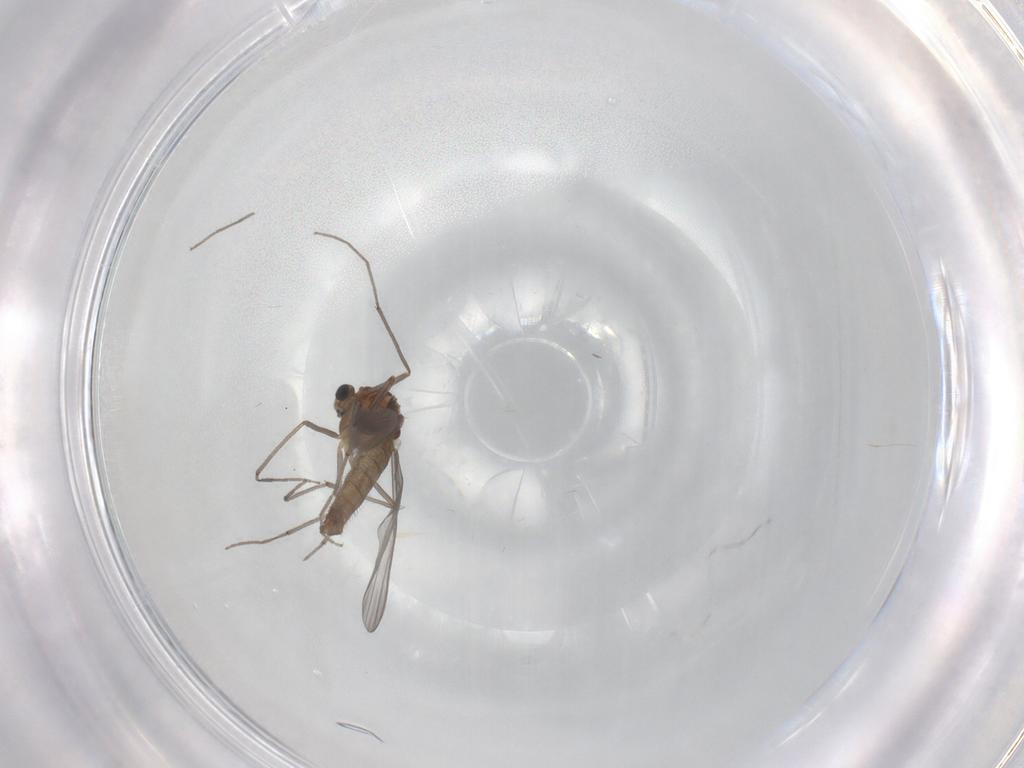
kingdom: Animalia
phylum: Arthropoda
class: Insecta
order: Diptera
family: Chironomidae
